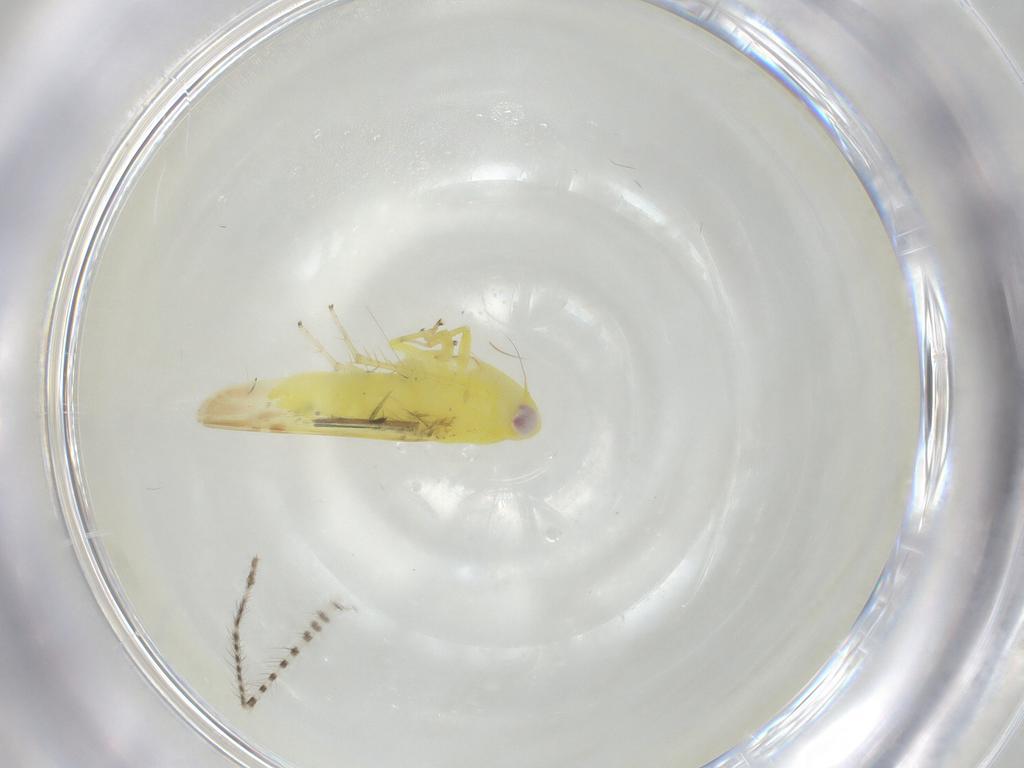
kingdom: Animalia
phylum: Arthropoda
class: Insecta
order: Hemiptera
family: Cicadellidae
